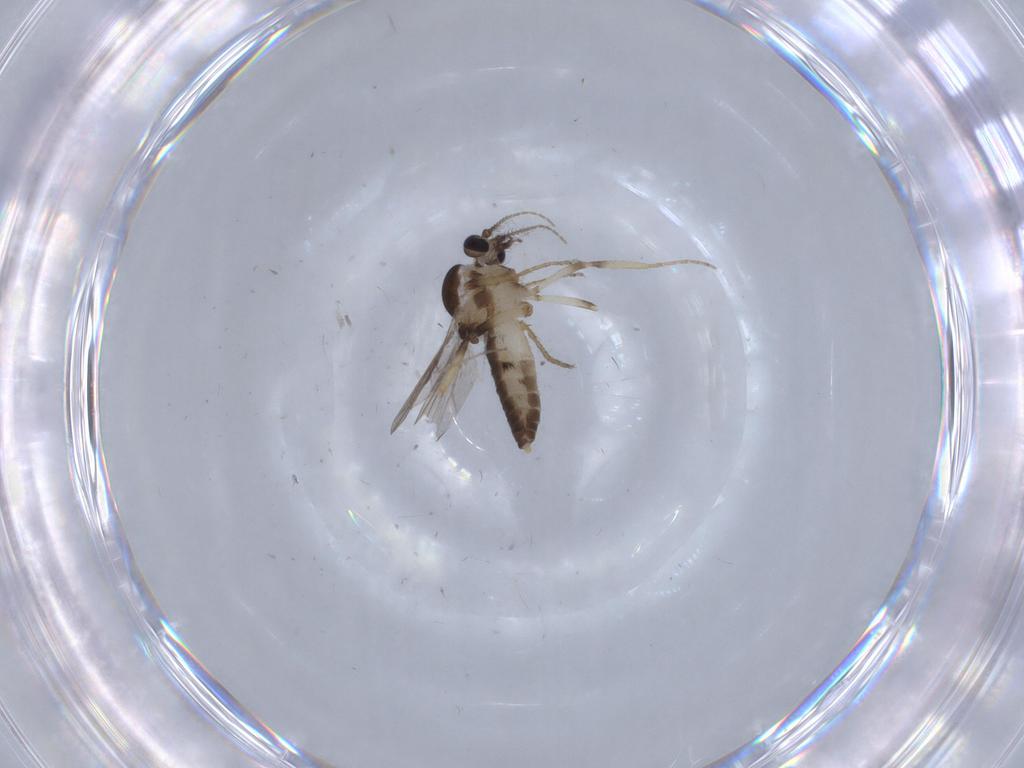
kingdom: Animalia
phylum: Arthropoda
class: Insecta
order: Diptera
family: Ceratopogonidae
